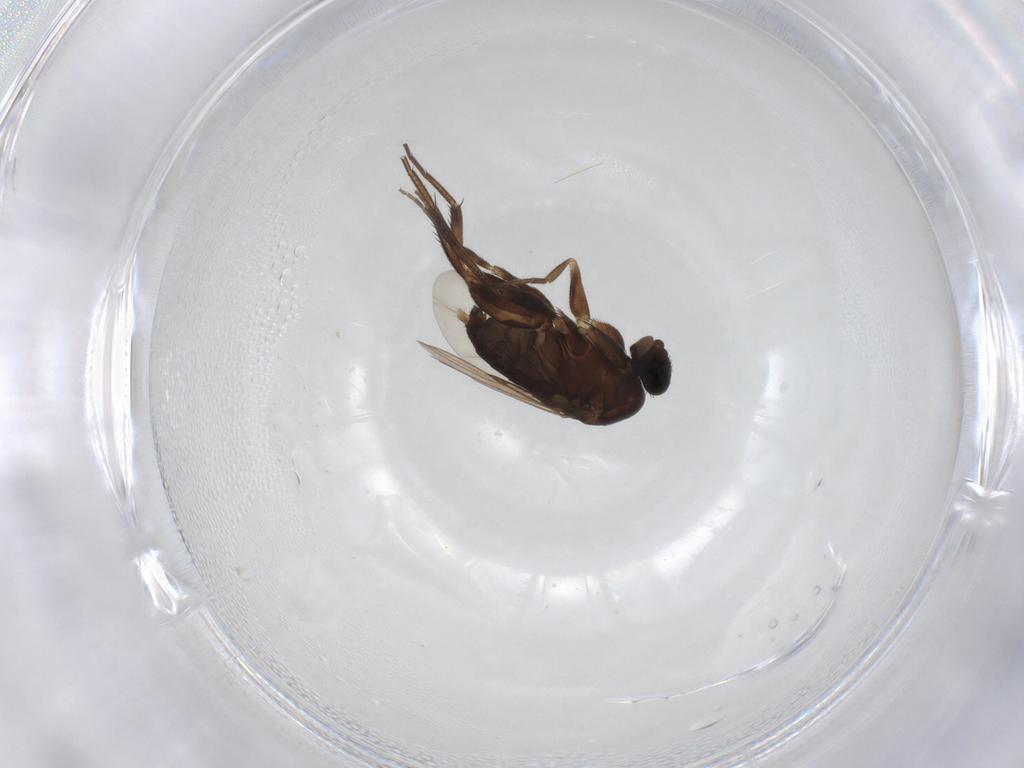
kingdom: Animalia
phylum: Arthropoda
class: Insecta
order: Diptera
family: Phoridae
